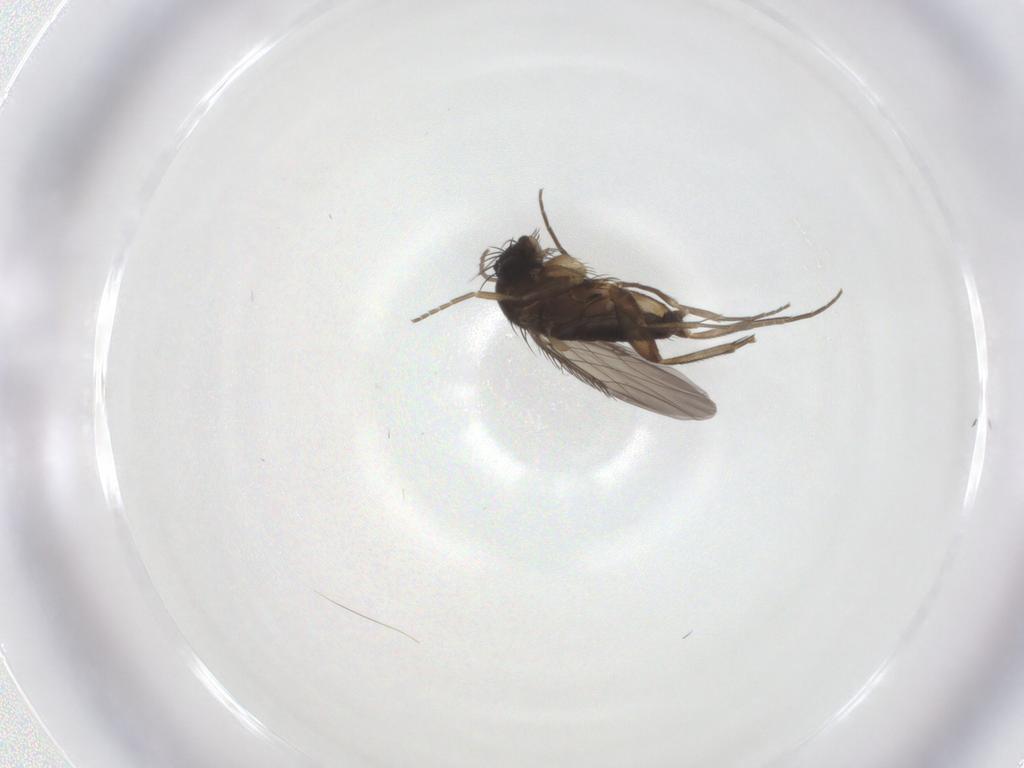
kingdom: Animalia
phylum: Arthropoda
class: Insecta
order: Diptera
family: Phoridae
